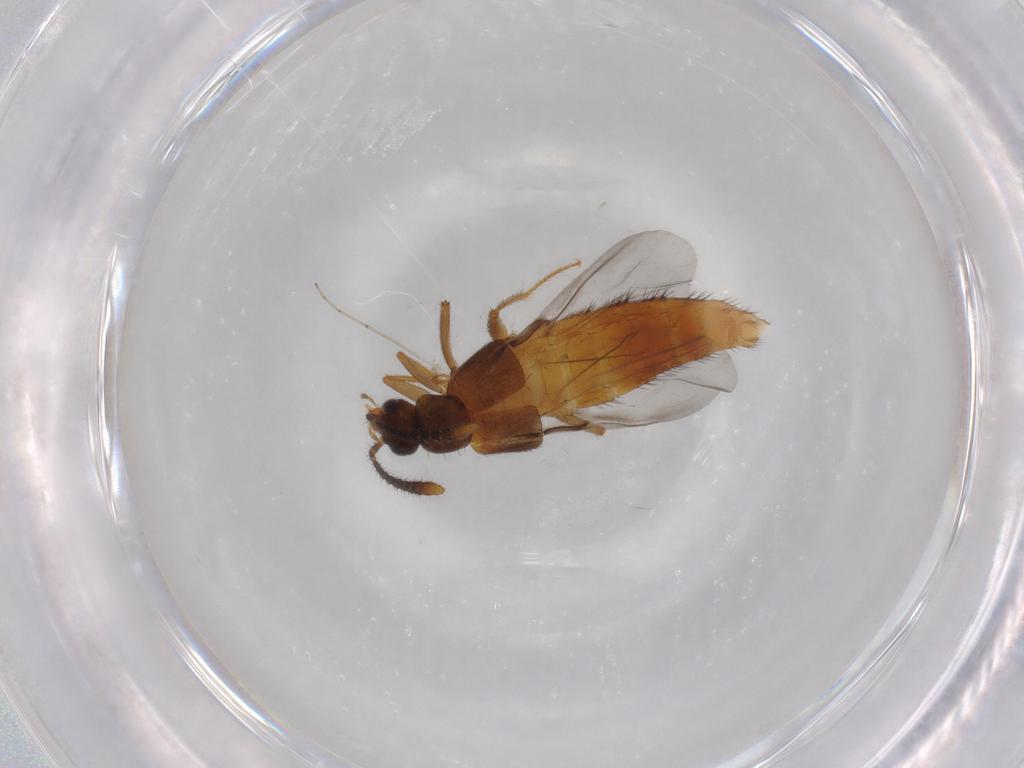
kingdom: Animalia
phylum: Arthropoda
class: Insecta
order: Coleoptera
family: Staphylinidae
